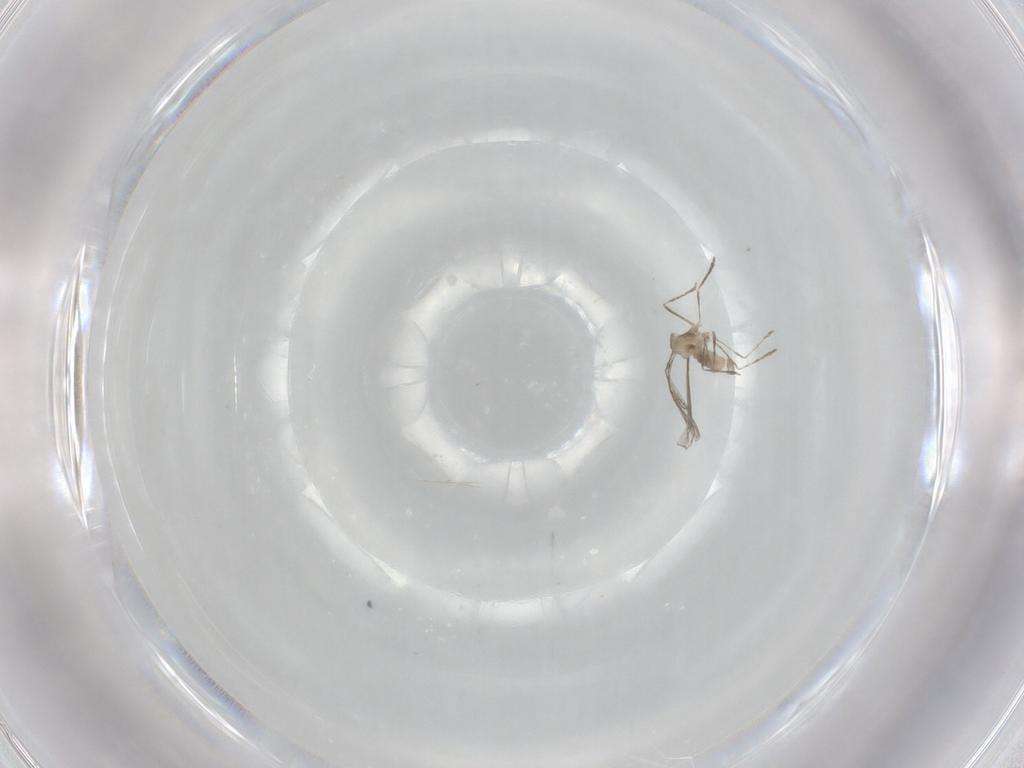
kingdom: Animalia
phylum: Arthropoda
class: Insecta
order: Diptera
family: Cecidomyiidae
